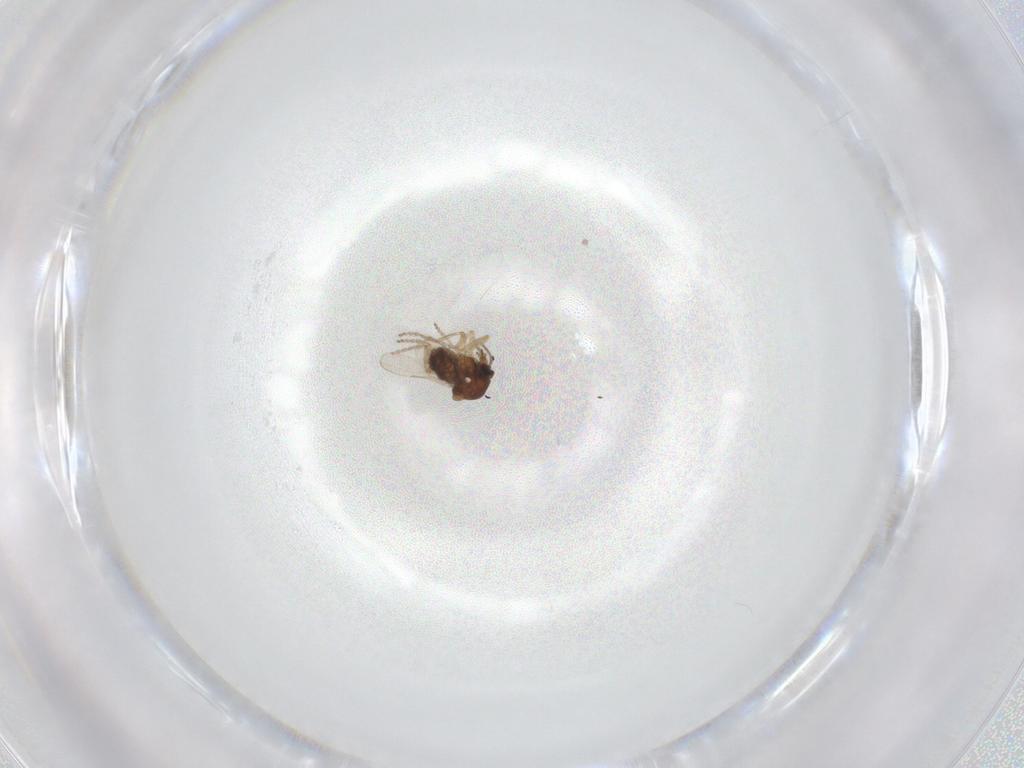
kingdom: Animalia
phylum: Arthropoda
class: Insecta
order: Diptera
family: Ceratopogonidae
